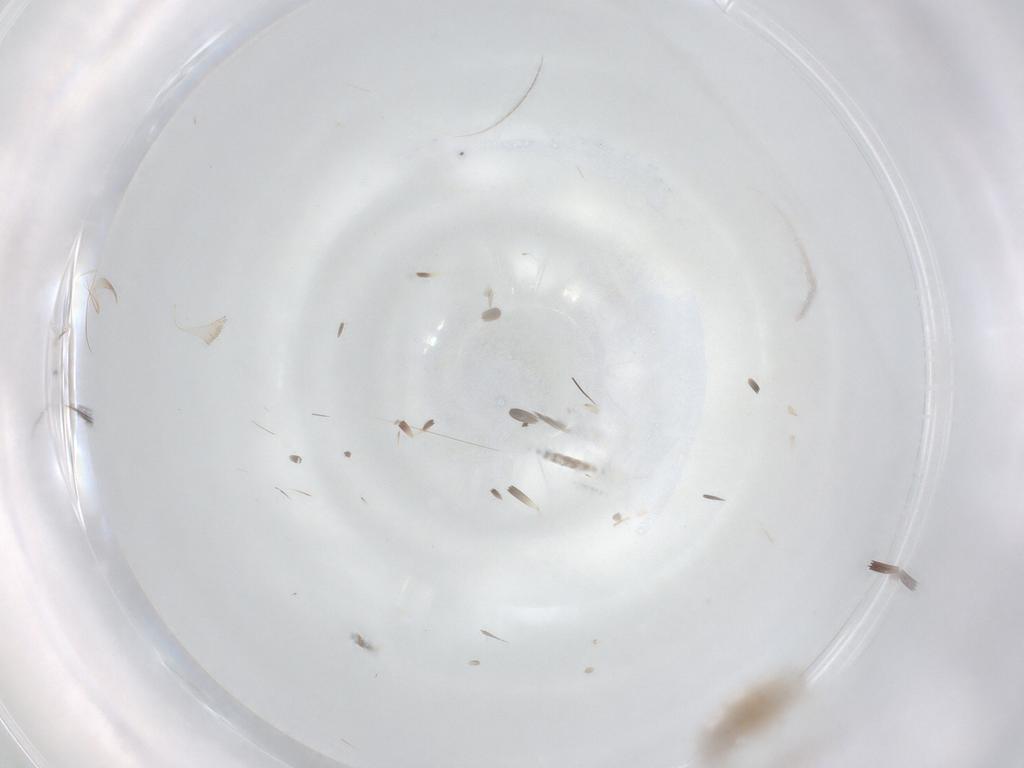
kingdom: Animalia
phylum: Arthropoda
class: Insecta
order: Diptera
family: Cecidomyiidae
